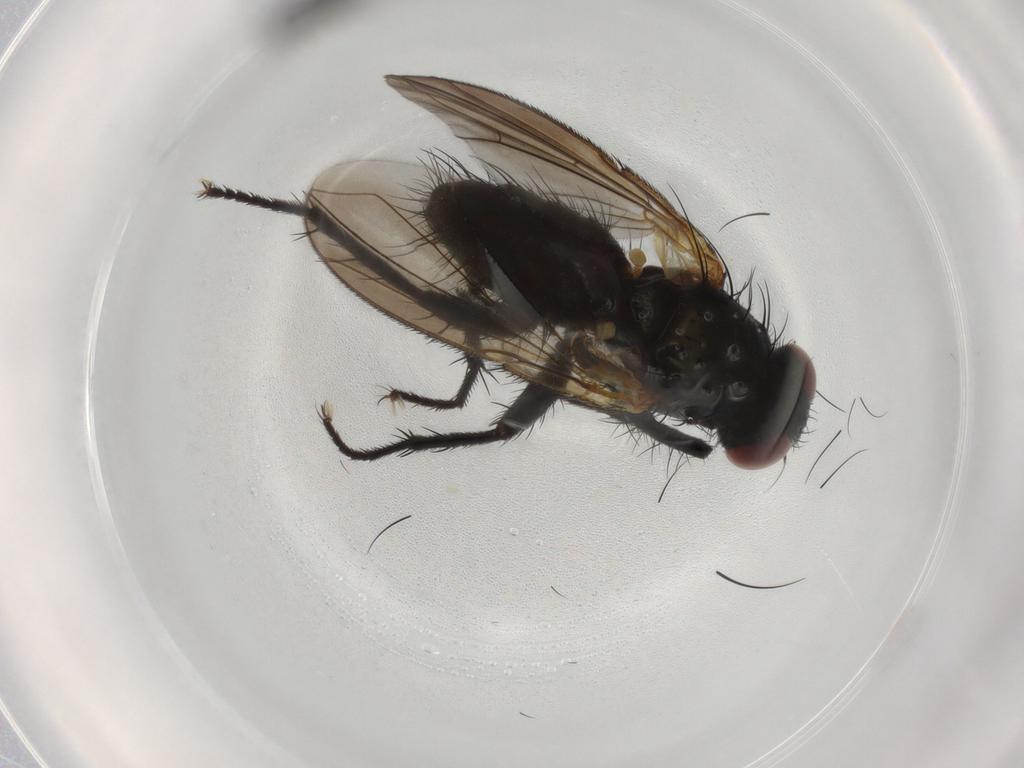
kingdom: Animalia
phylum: Arthropoda
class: Insecta
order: Diptera
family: Calliphoridae
